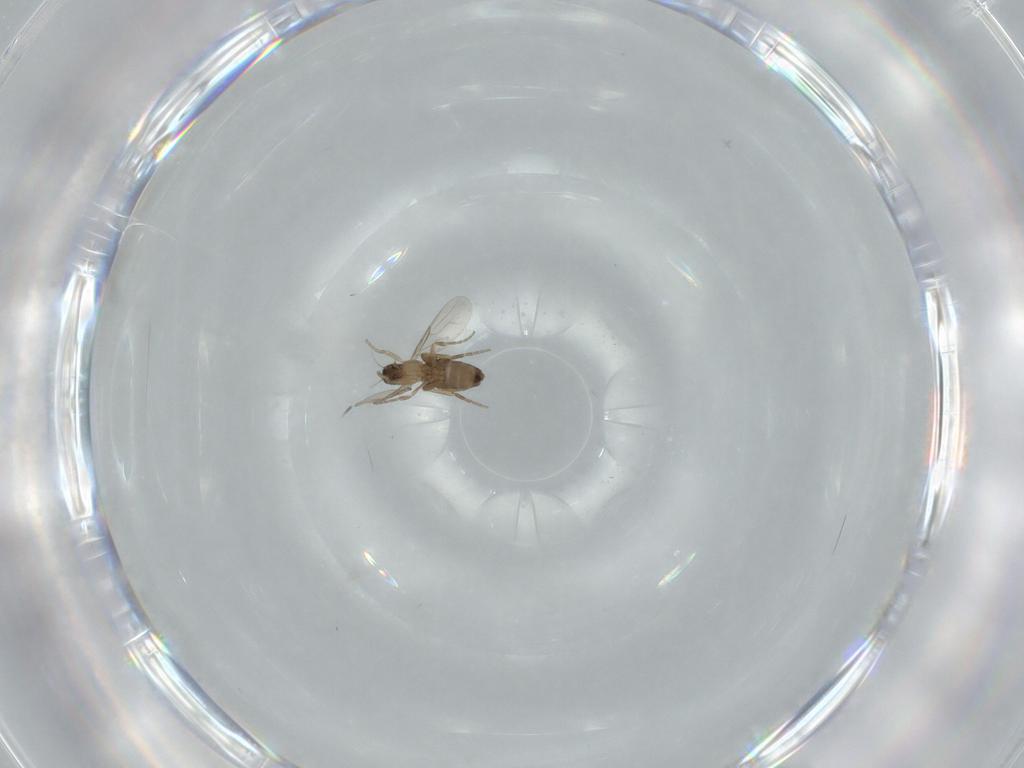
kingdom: Animalia
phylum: Arthropoda
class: Insecta
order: Diptera
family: Phoridae
